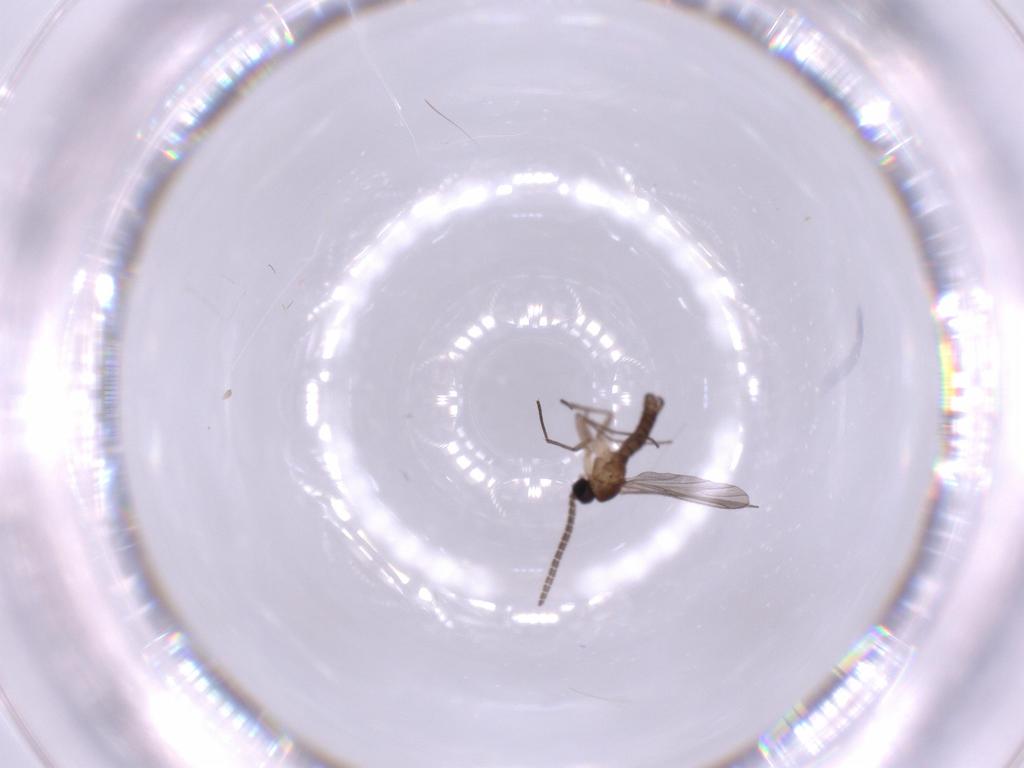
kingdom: Animalia
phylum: Arthropoda
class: Insecta
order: Diptera
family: Sciaridae
